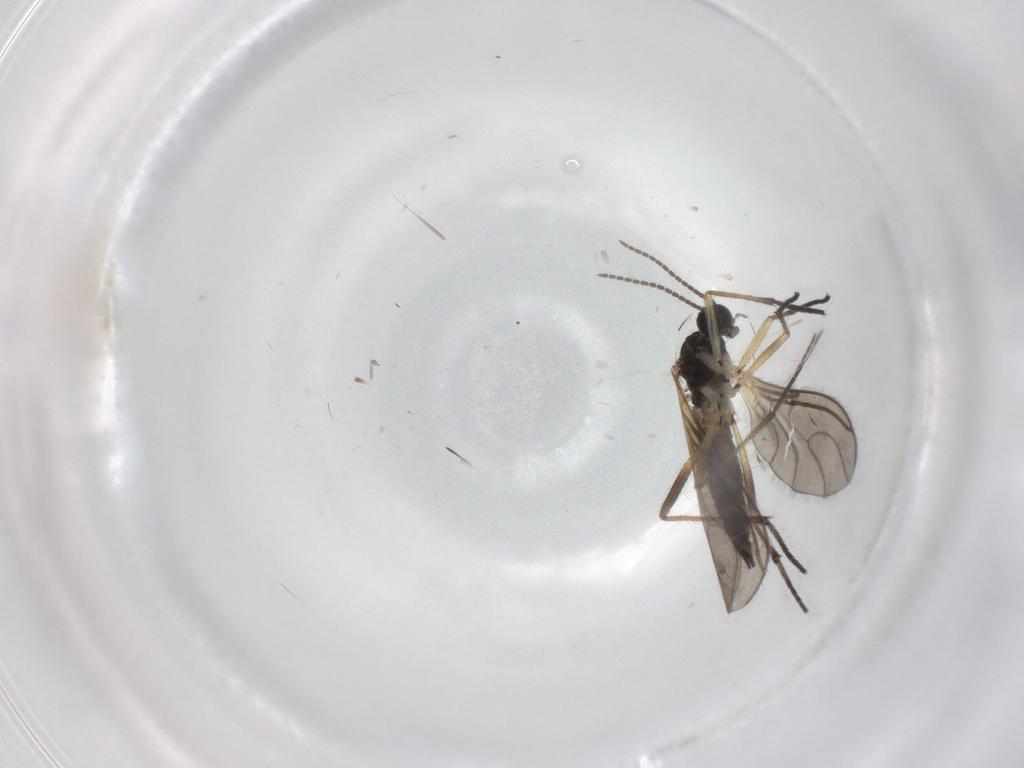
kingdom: Animalia
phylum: Arthropoda
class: Insecta
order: Diptera
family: Sciaridae
